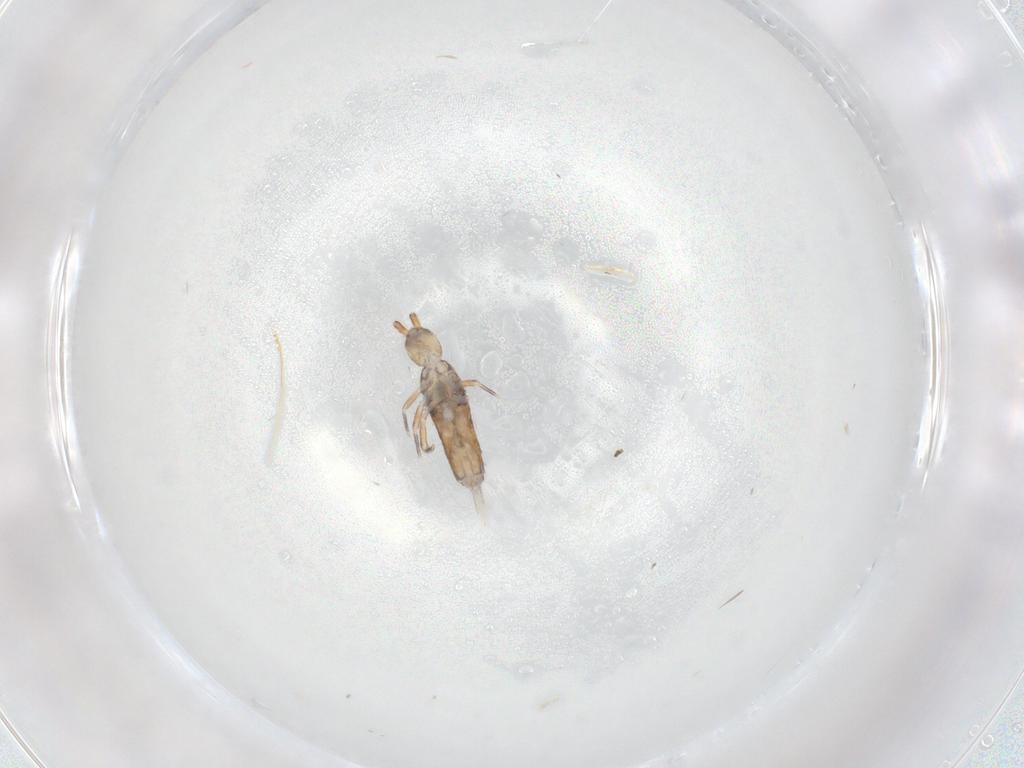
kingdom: Animalia
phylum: Arthropoda
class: Collembola
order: Entomobryomorpha
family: Entomobryidae
